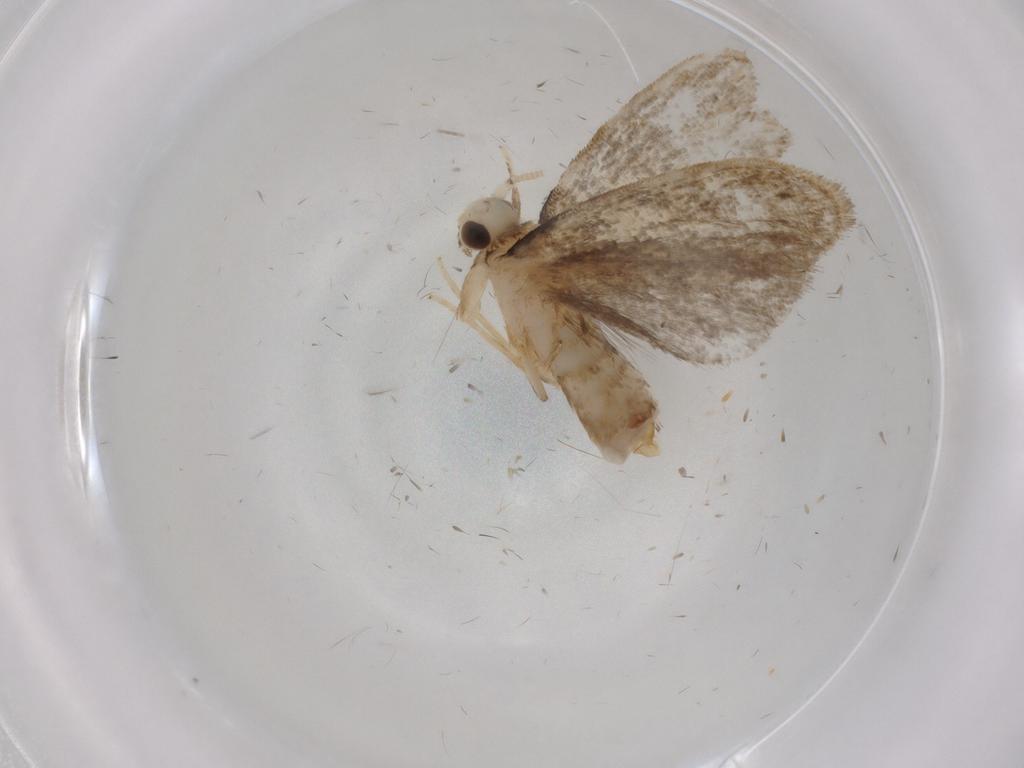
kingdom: Animalia
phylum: Arthropoda
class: Insecta
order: Lepidoptera
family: Dryadaulidae
